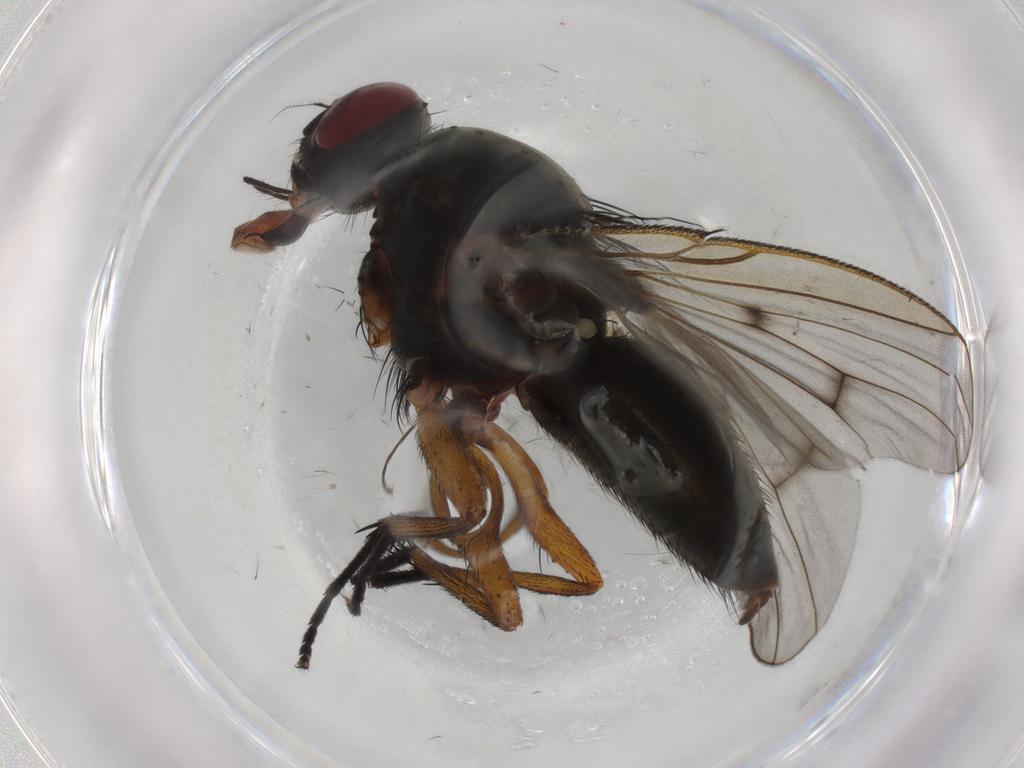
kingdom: Animalia
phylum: Arthropoda
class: Insecta
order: Diptera
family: Muscidae
